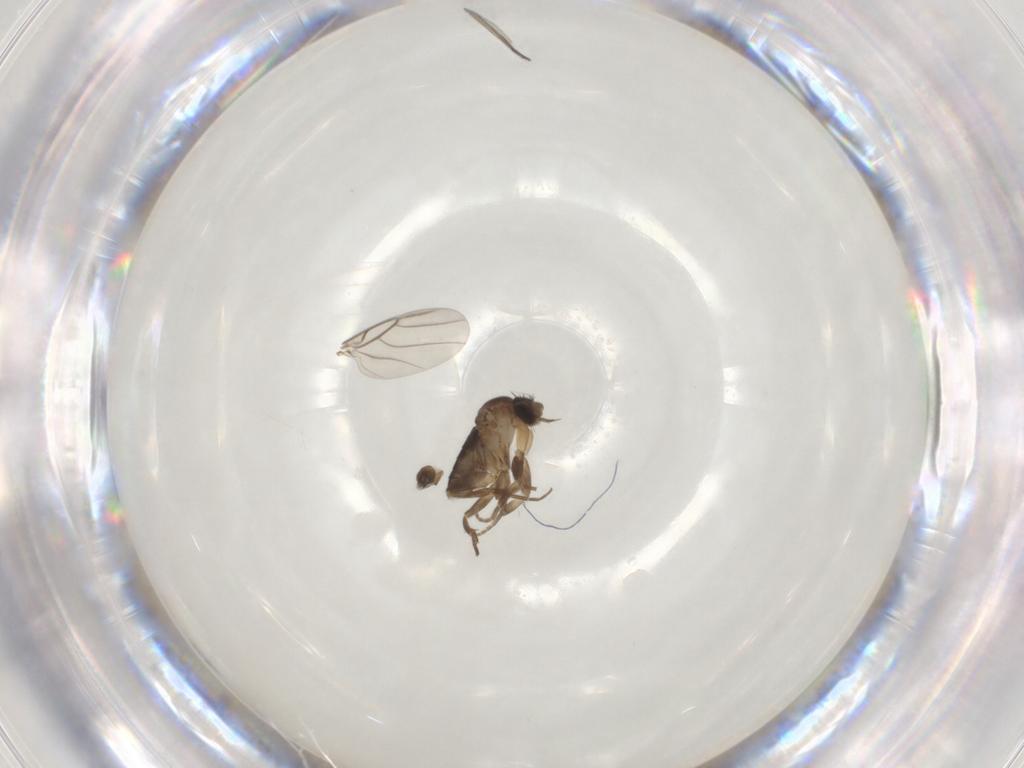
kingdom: Animalia
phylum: Arthropoda
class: Insecta
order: Diptera
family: Phoridae
